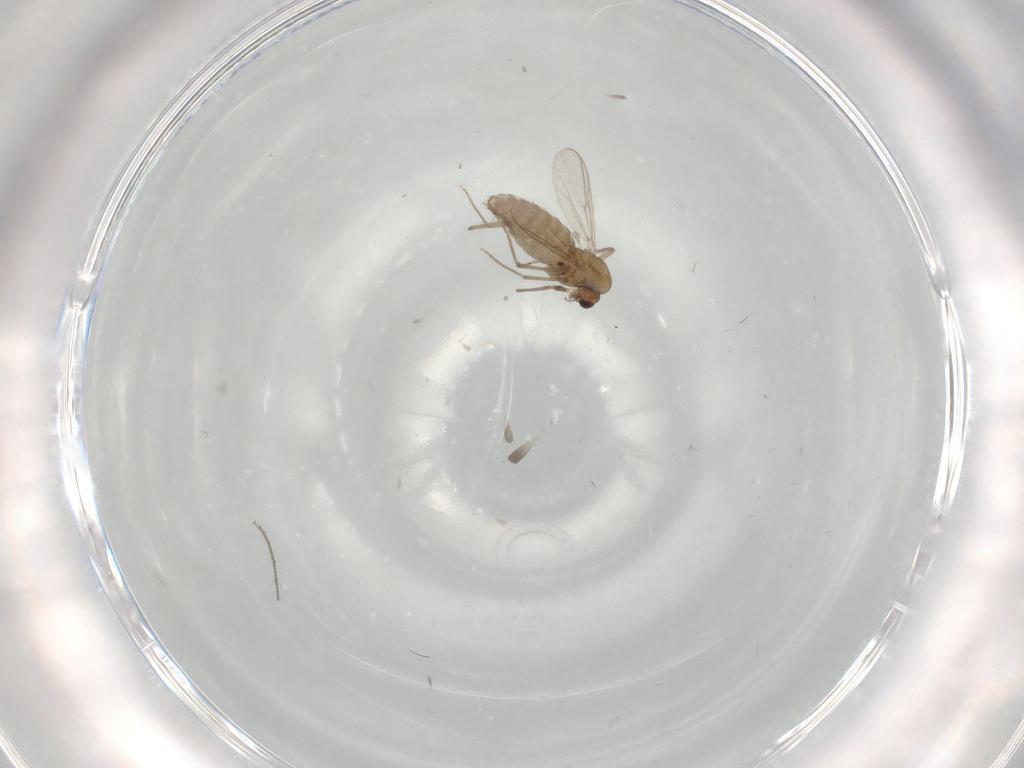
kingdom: Animalia
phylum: Arthropoda
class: Insecta
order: Diptera
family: Chironomidae
